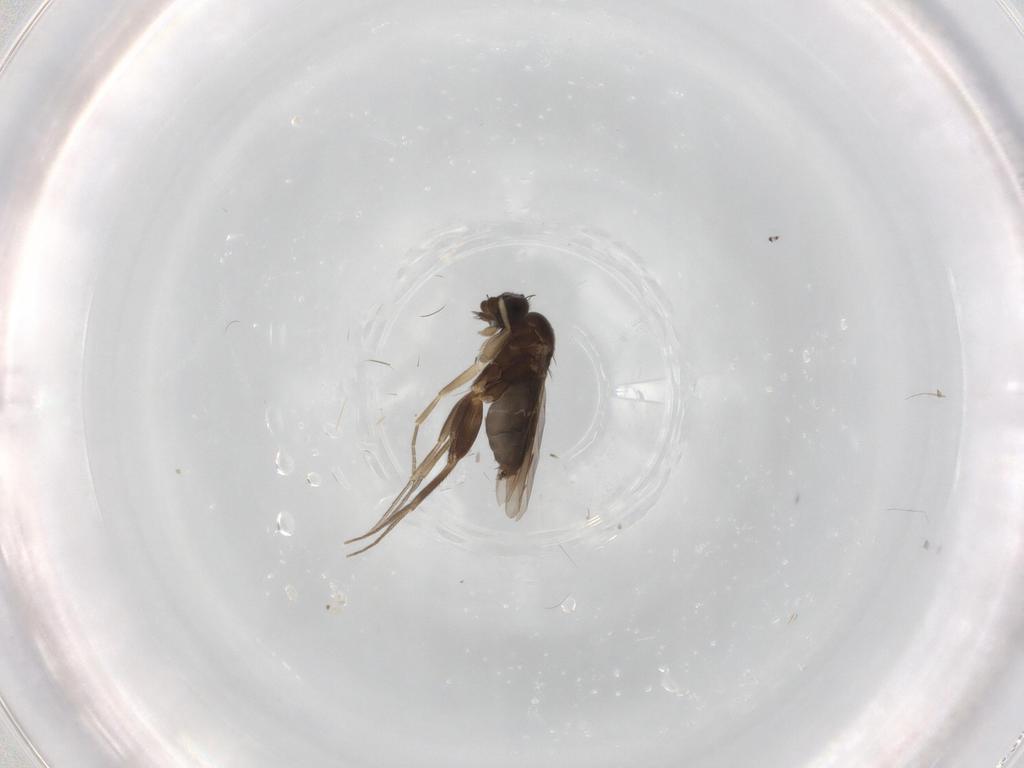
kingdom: Animalia
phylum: Arthropoda
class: Insecta
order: Diptera
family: Phoridae
